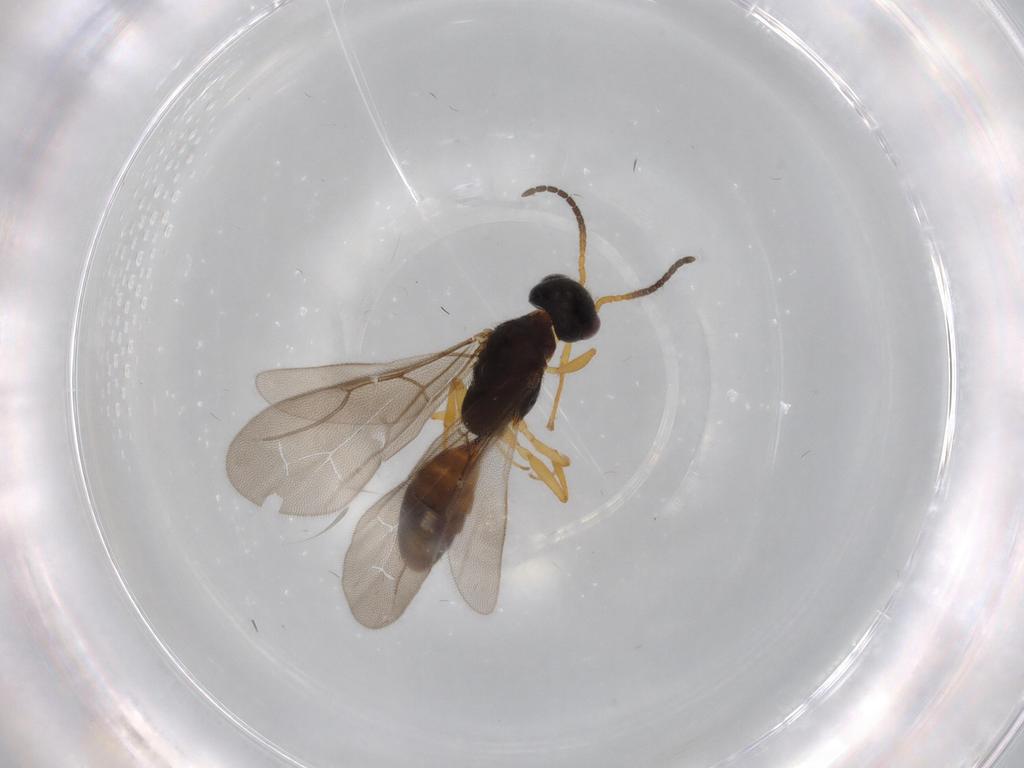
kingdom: Animalia
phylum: Arthropoda
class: Insecta
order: Hymenoptera
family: Bethylidae
